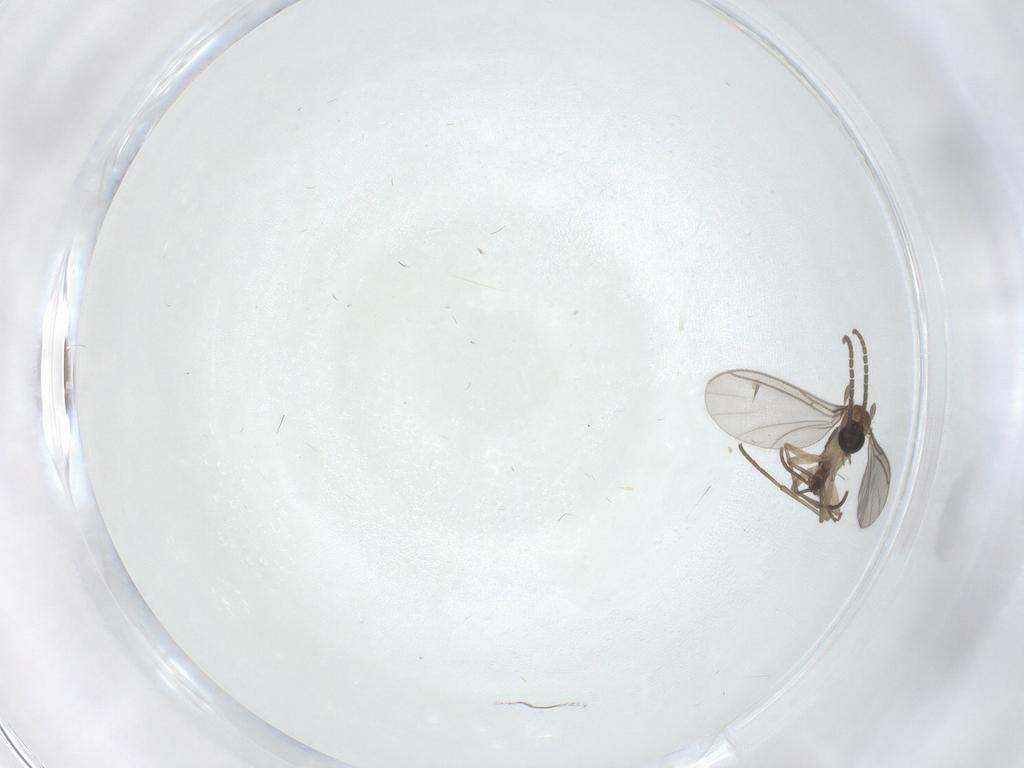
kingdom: Animalia
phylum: Arthropoda
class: Insecta
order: Diptera
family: Sciaridae
